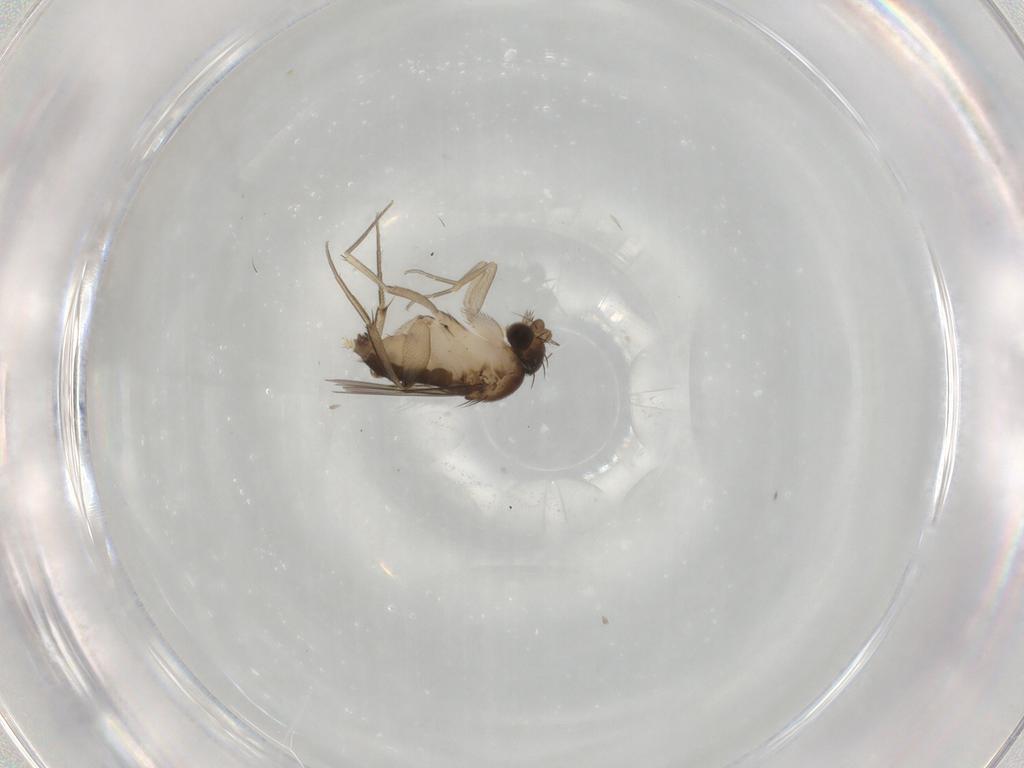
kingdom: Animalia
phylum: Arthropoda
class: Insecta
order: Diptera
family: Phoridae
